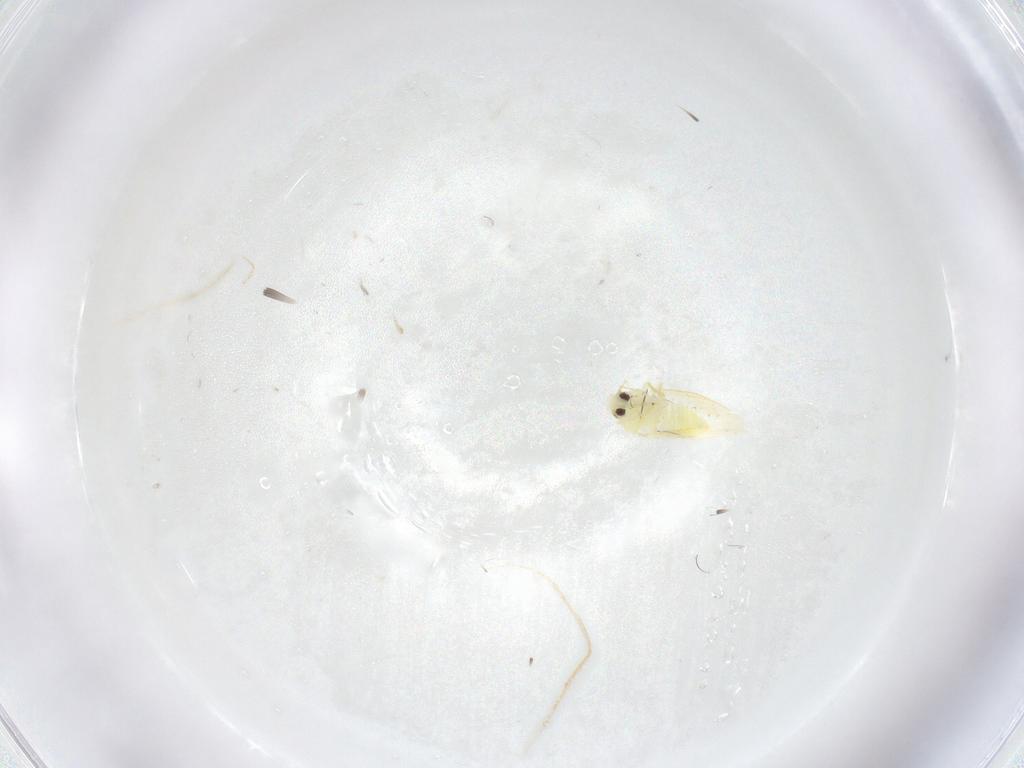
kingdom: Animalia
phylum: Arthropoda
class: Insecta
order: Hemiptera
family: Aleyrodidae
